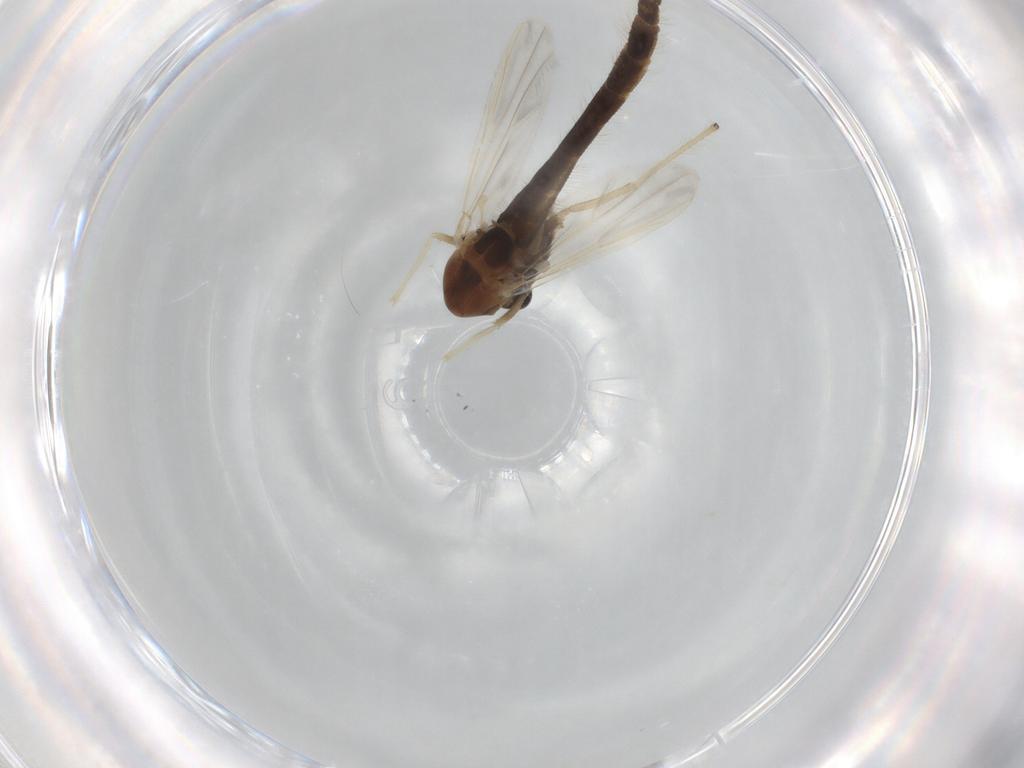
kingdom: Animalia
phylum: Arthropoda
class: Insecta
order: Diptera
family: Chironomidae
